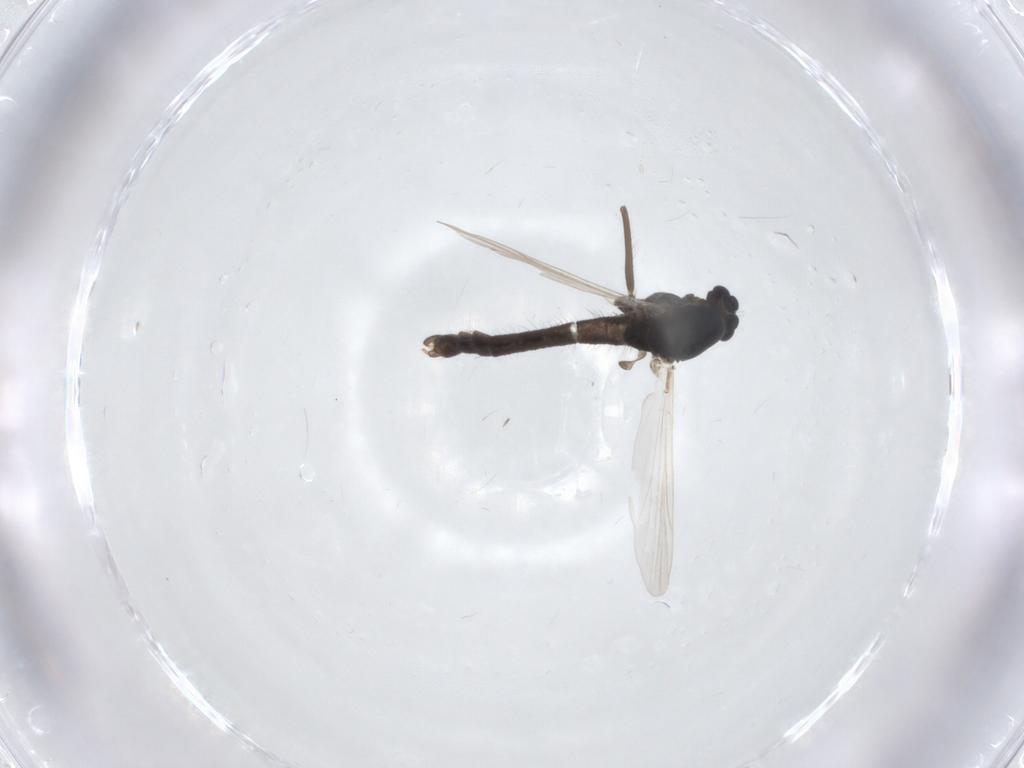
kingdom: Animalia
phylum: Arthropoda
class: Insecta
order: Diptera
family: Chironomidae
